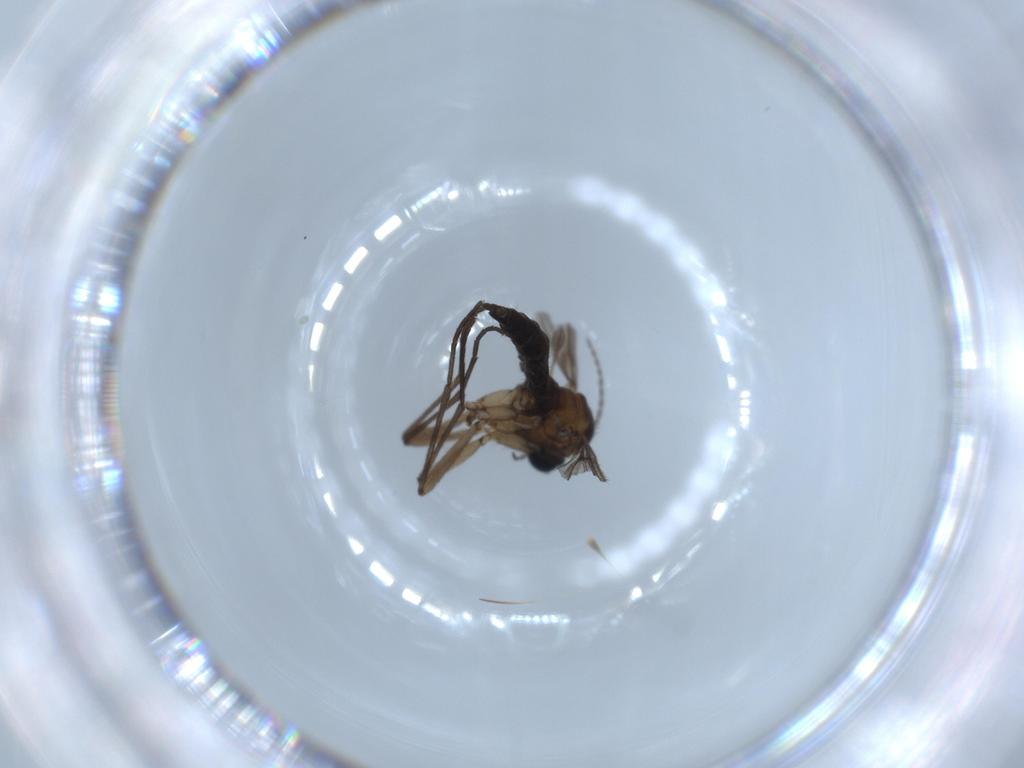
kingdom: Animalia
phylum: Arthropoda
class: Insecta
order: Diptera
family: Sciaridae
